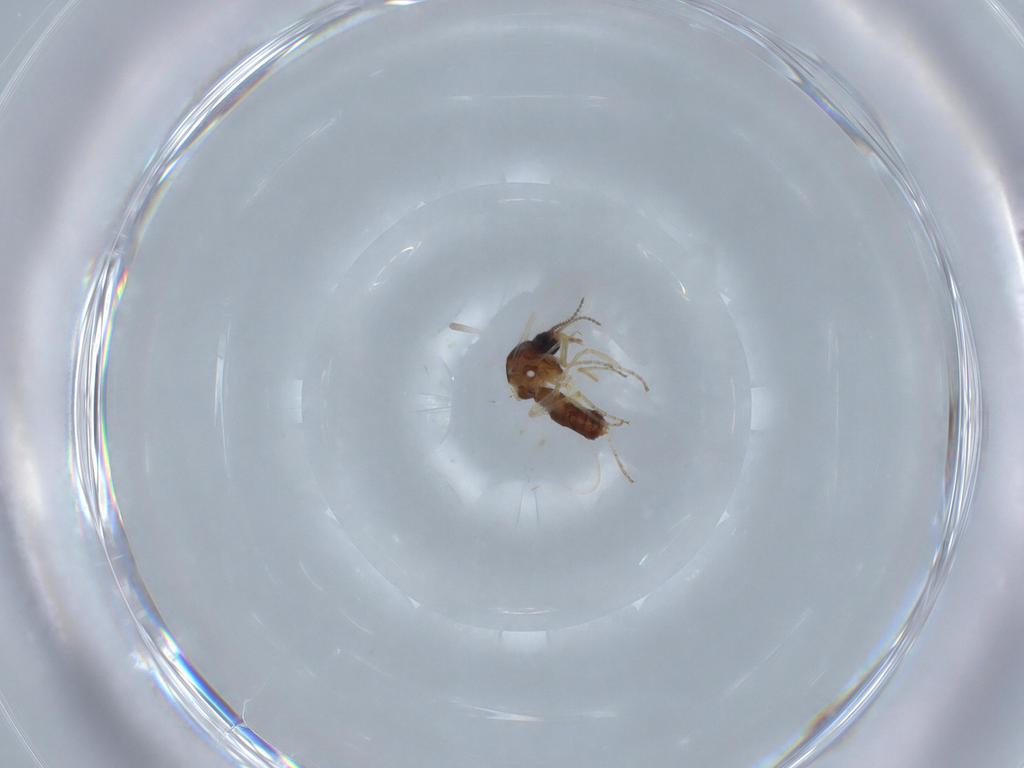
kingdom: Animalia
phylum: Arthropoda
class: Insecta
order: Diptera
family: Ceratopogonidae
